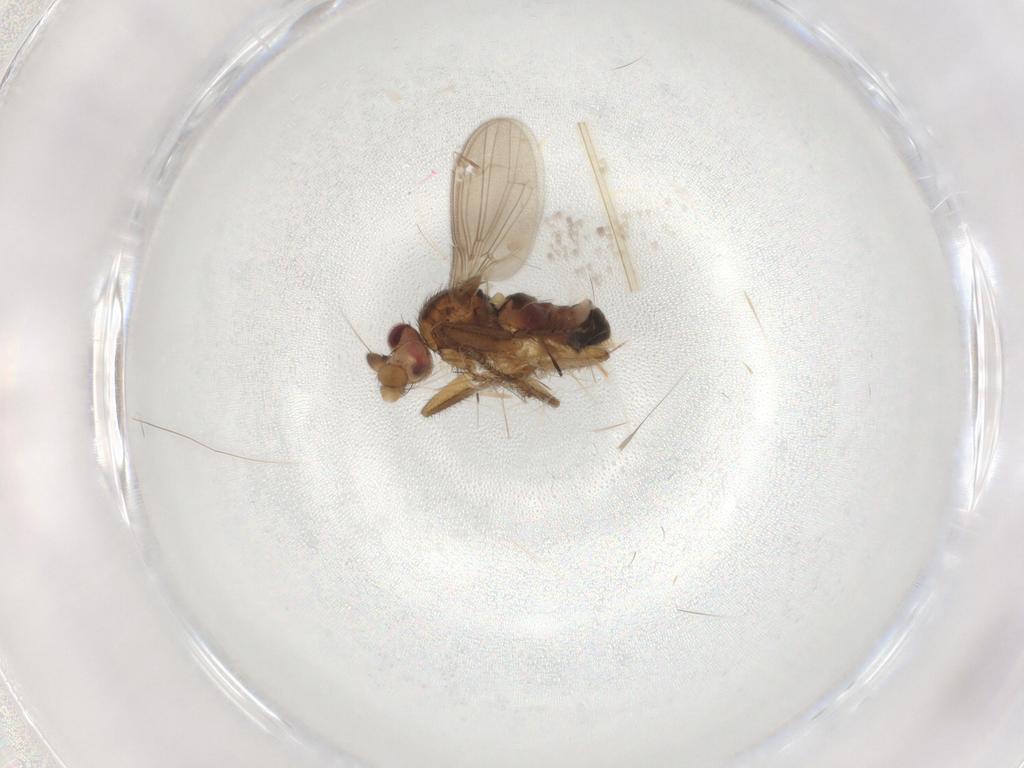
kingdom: Animalia
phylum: Arthropoda
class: Insecta
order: Diptera
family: Sphaeroceridae
